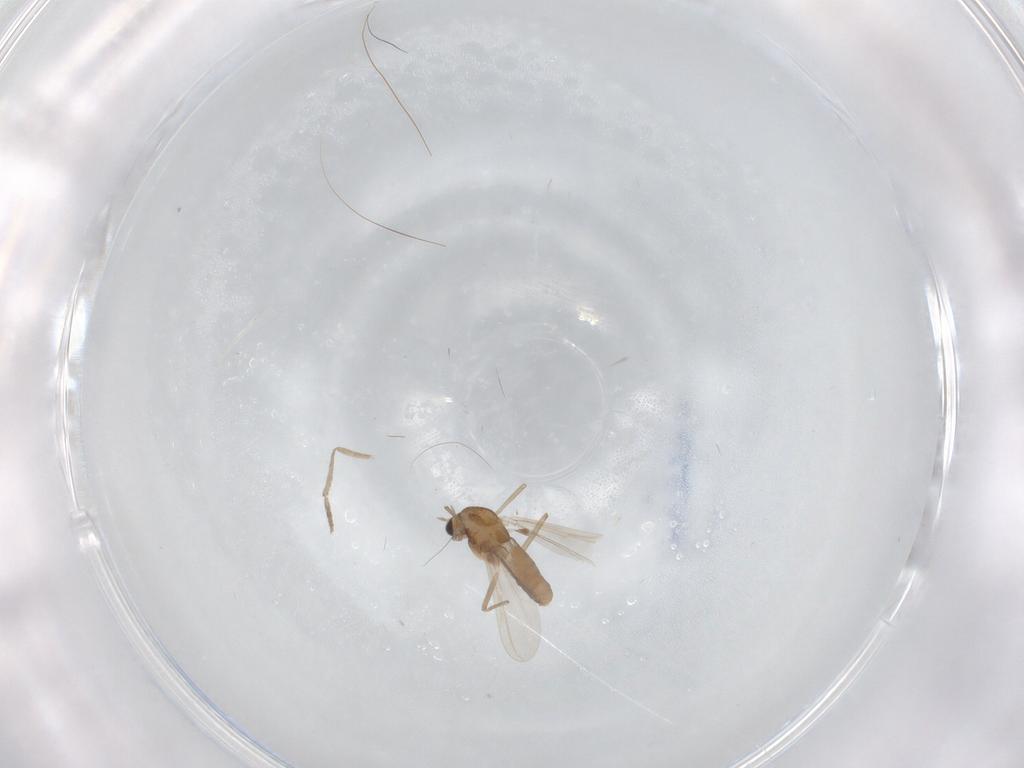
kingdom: Animalia
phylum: Arthropoda
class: Insecta
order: Diptera
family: Chironomidae
